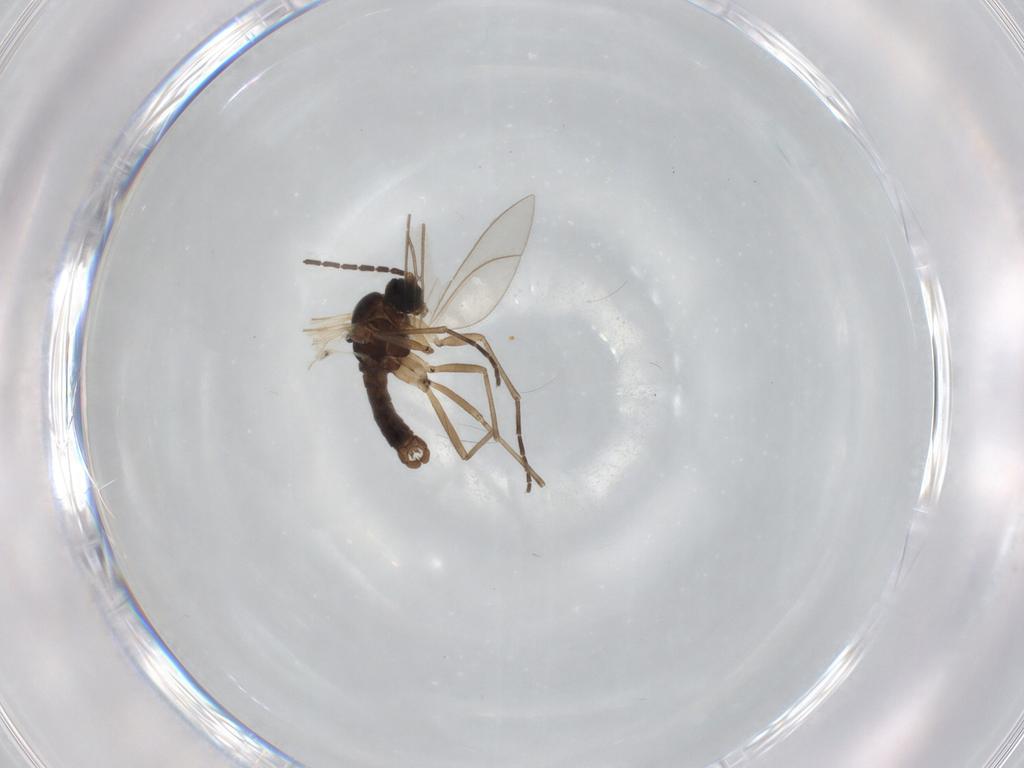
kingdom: Animalia
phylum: Arthropoda
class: Insecta
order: Diptera
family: Sciaridae
